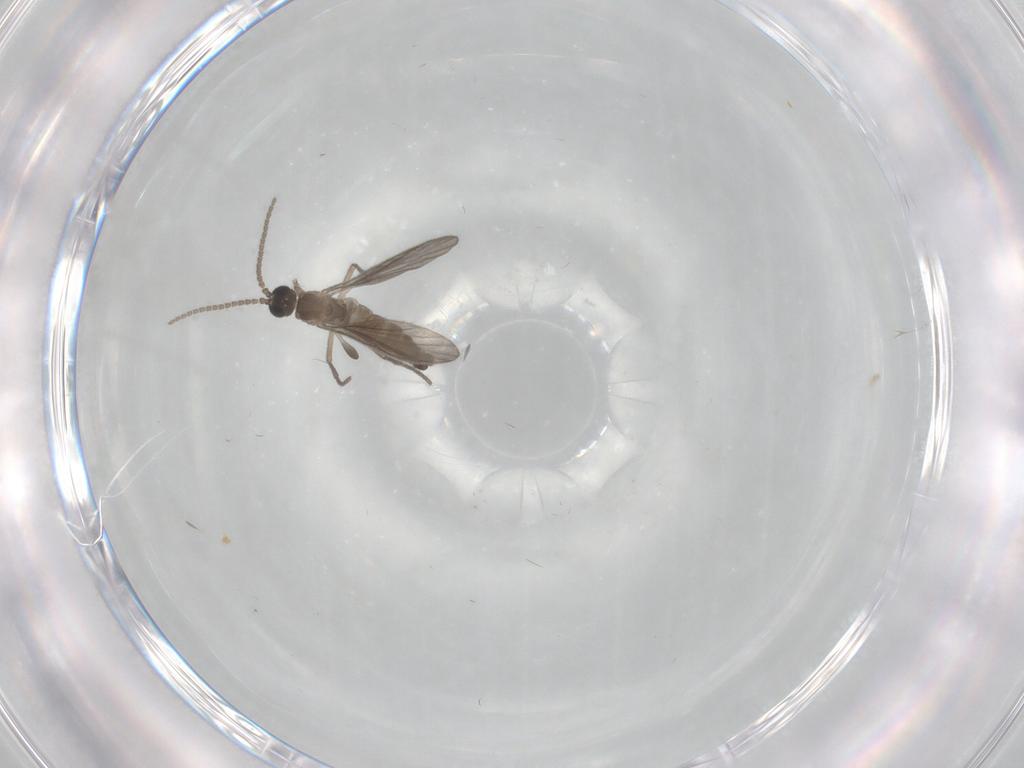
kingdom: Animalia
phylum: Arthropoda
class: Insecta
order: Diptera
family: Sciaridae
